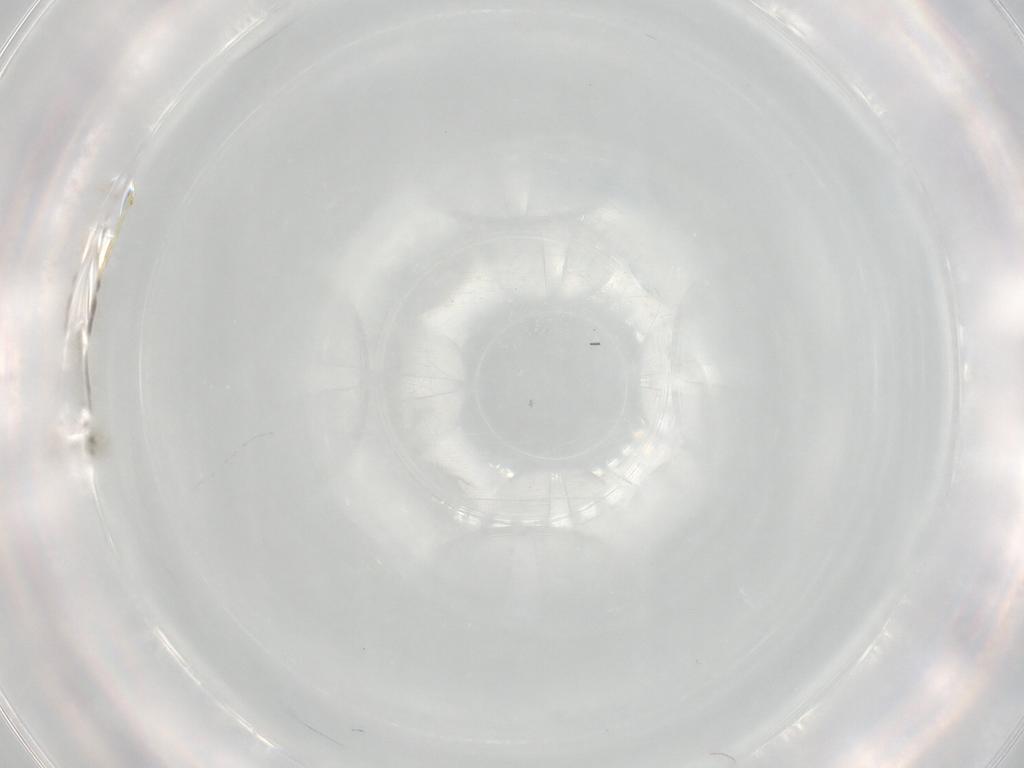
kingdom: Animalia
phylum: Arthropoda
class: Insecta
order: Diptera
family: Chironomidae
